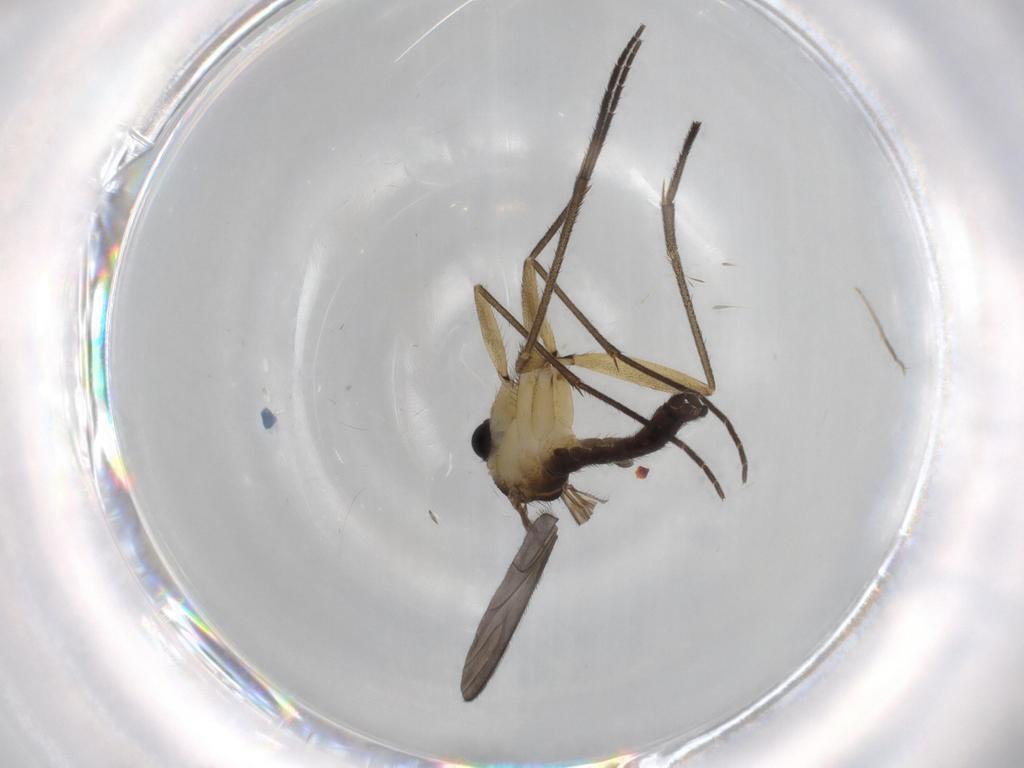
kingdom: Animalia
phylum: Arthropoda
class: Insecta
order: Diptera
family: Sciaridae
